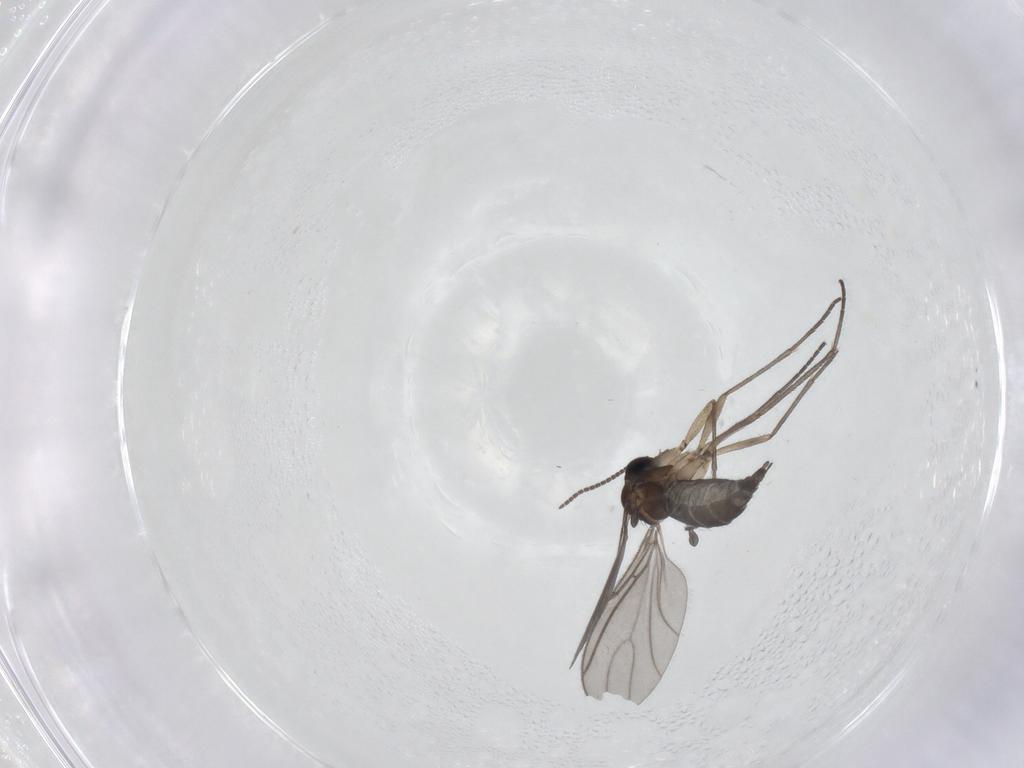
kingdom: Animalia
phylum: Arthropoda
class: Insecta
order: Diptera
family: Sciaridae
